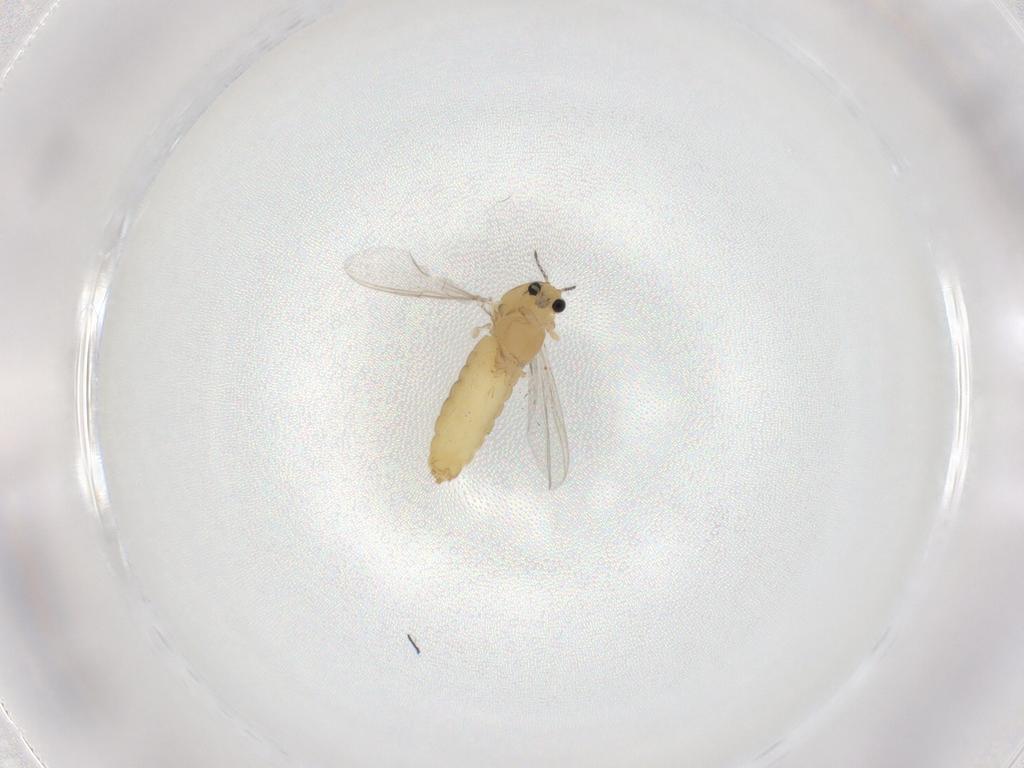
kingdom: Animalia
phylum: Arthropoda
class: Insecta
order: Diptera
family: Chironomidae
